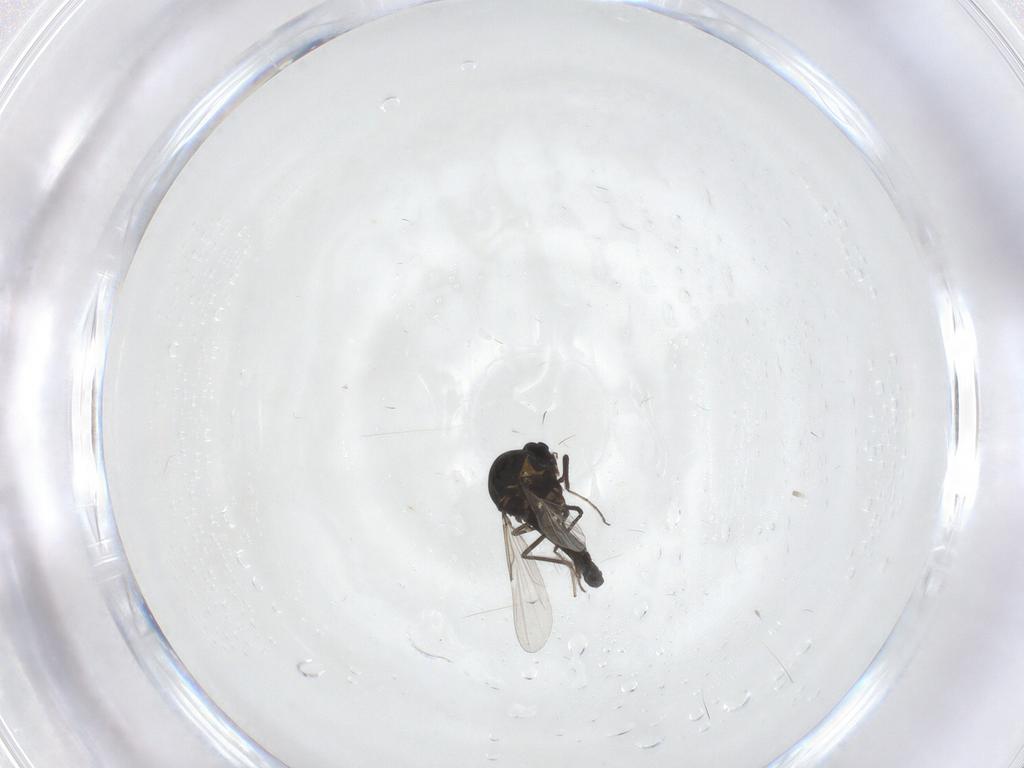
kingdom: Animalia
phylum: Arthropoda
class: Insecta
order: Diptera
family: Ceratopogonidae
